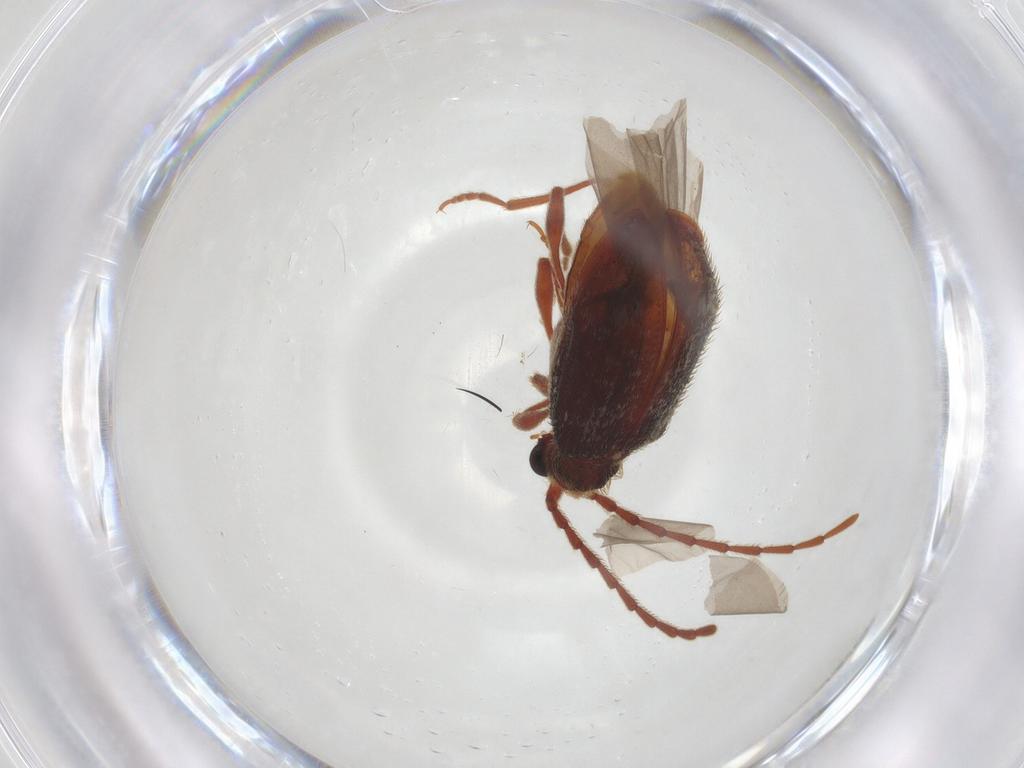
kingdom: Animalia
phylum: Arthropoda
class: Insecta
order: Coleoptera
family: Ptinidae
